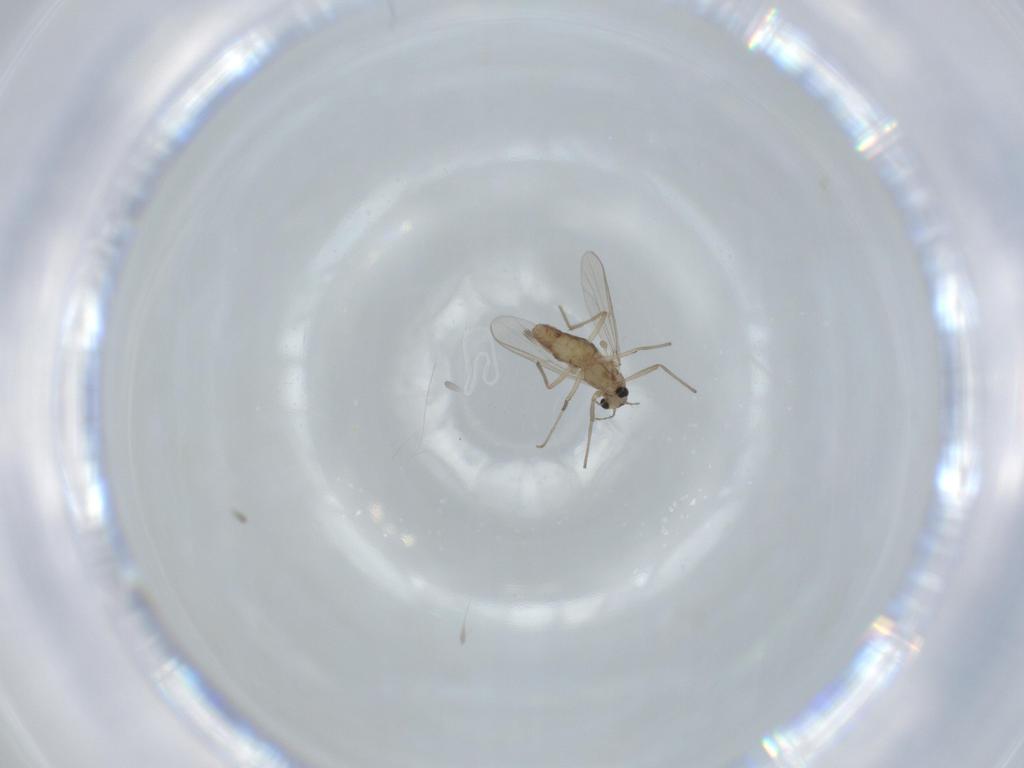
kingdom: Animalia
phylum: Arthropoda
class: Insecta
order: Diptera
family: Chironomidae
